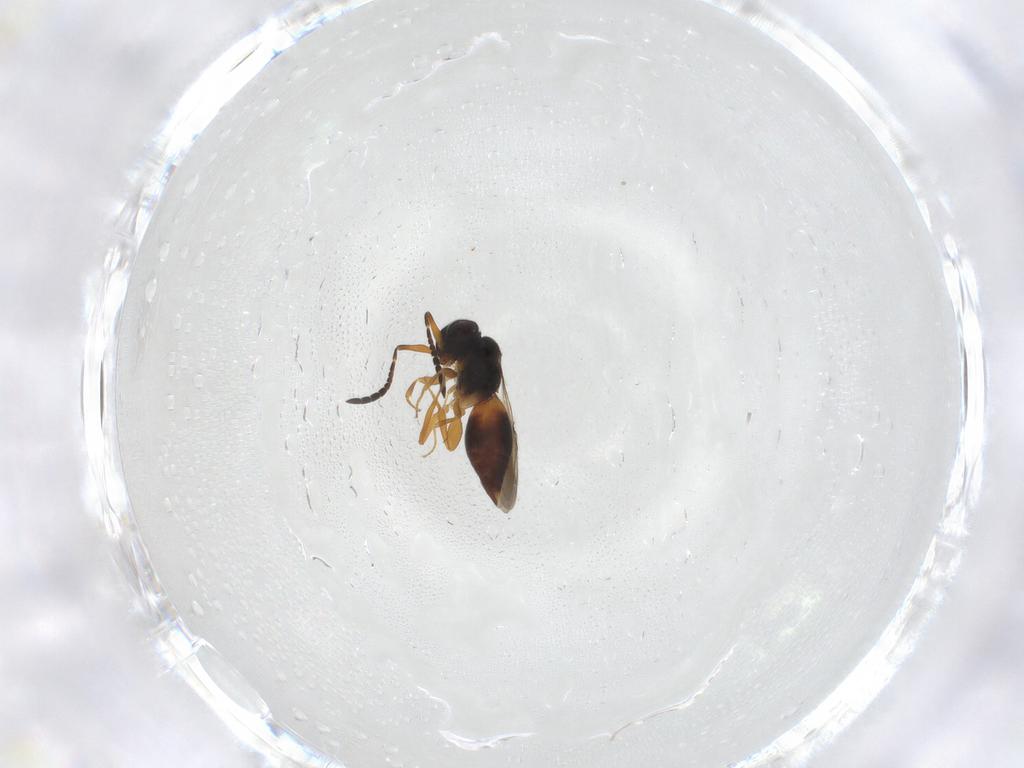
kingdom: Animalia
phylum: Arthropoda
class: Insecta
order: Hymenoptera
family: Ceraphronidae
